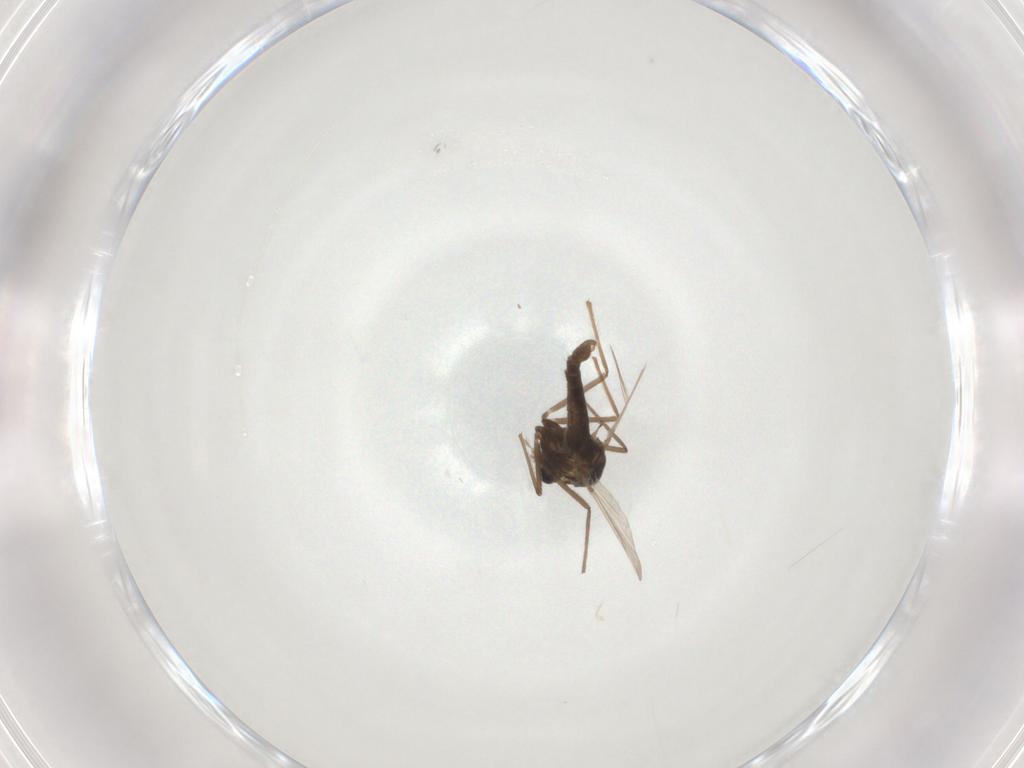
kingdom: Animalia
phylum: Arthropoda
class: Insecta
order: Diptera
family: Chironomidae
